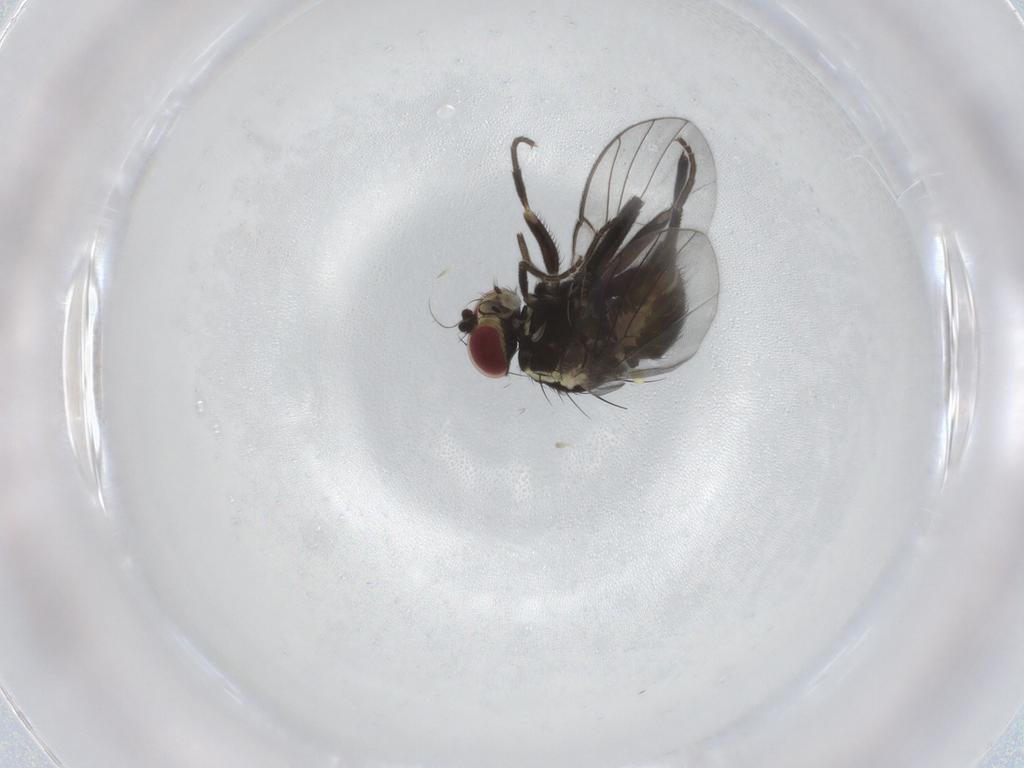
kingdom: Animalia
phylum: Arthropoda
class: Insecta
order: Diptera
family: Agromyzidae
